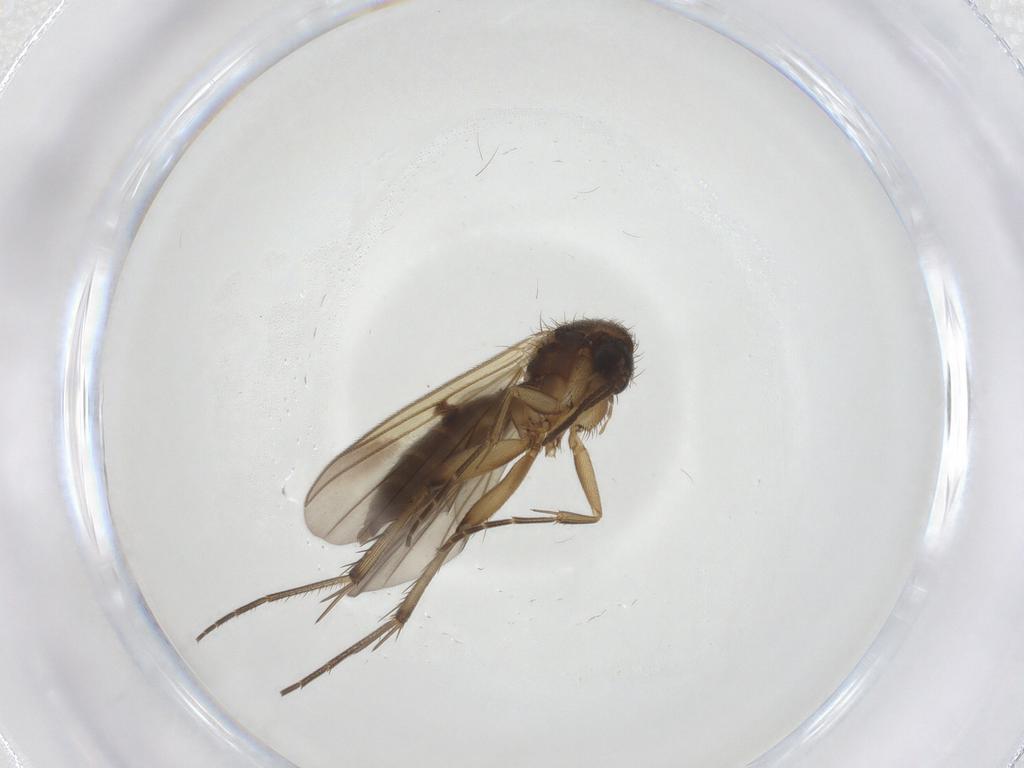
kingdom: Animalia
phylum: Arthropoda
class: Insecta
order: Diptera
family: Mycetophilidae
